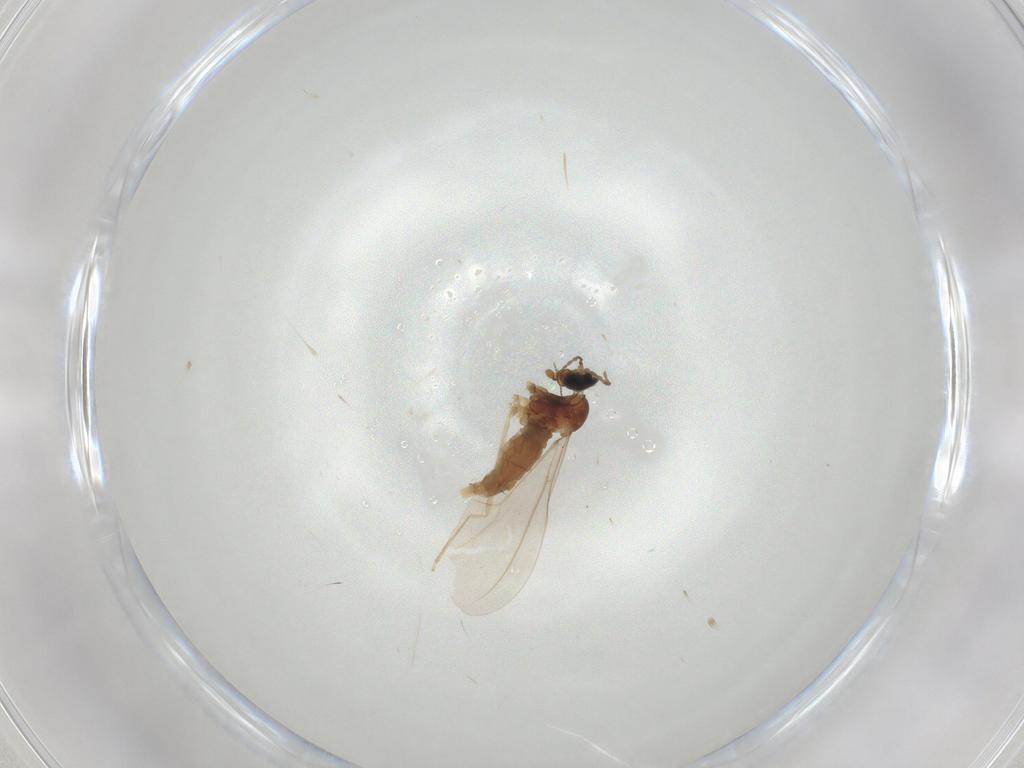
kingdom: Animalia
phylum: Arthropoda
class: Insecta
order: Diptera
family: Cecidomyiidae
